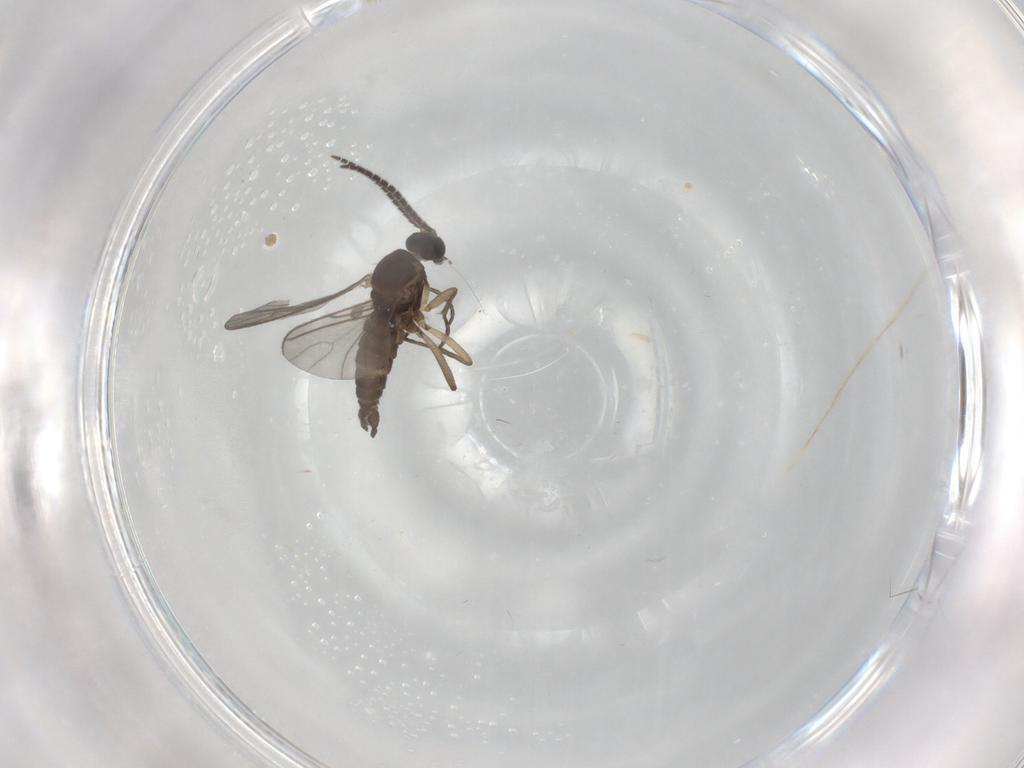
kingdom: Animalia
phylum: Arthropoda
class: Insecta
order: Diptera
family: Sciaridae
